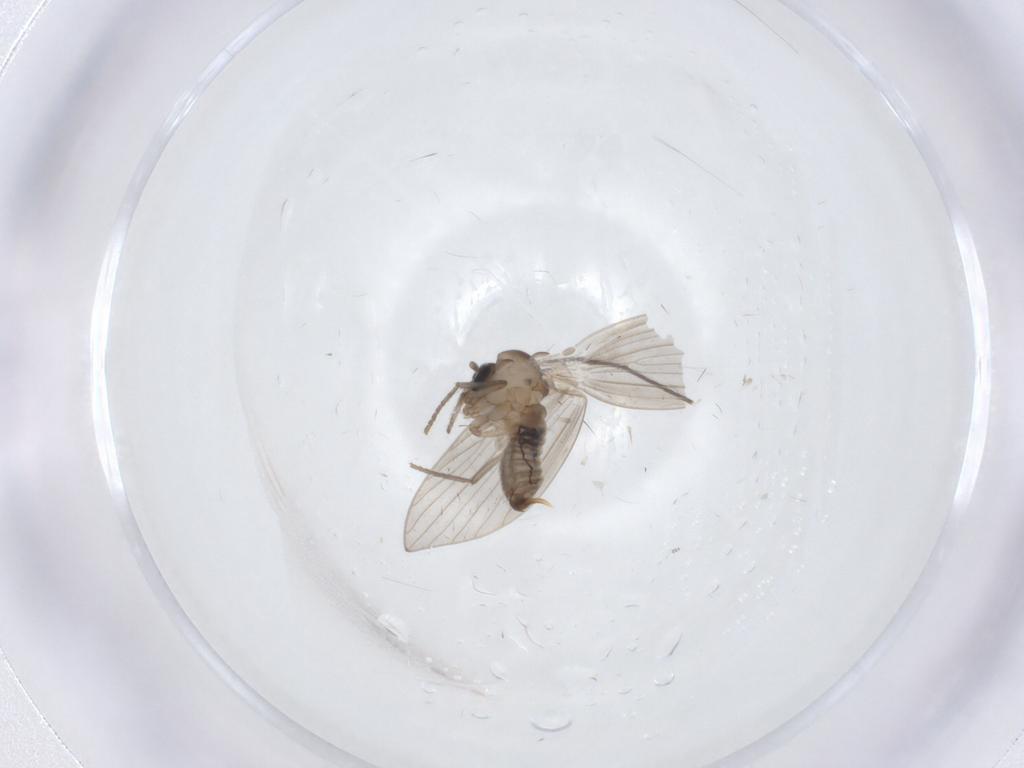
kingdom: Animalia
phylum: Arthropoda
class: Insecta
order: Diptera
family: Psychodidae
